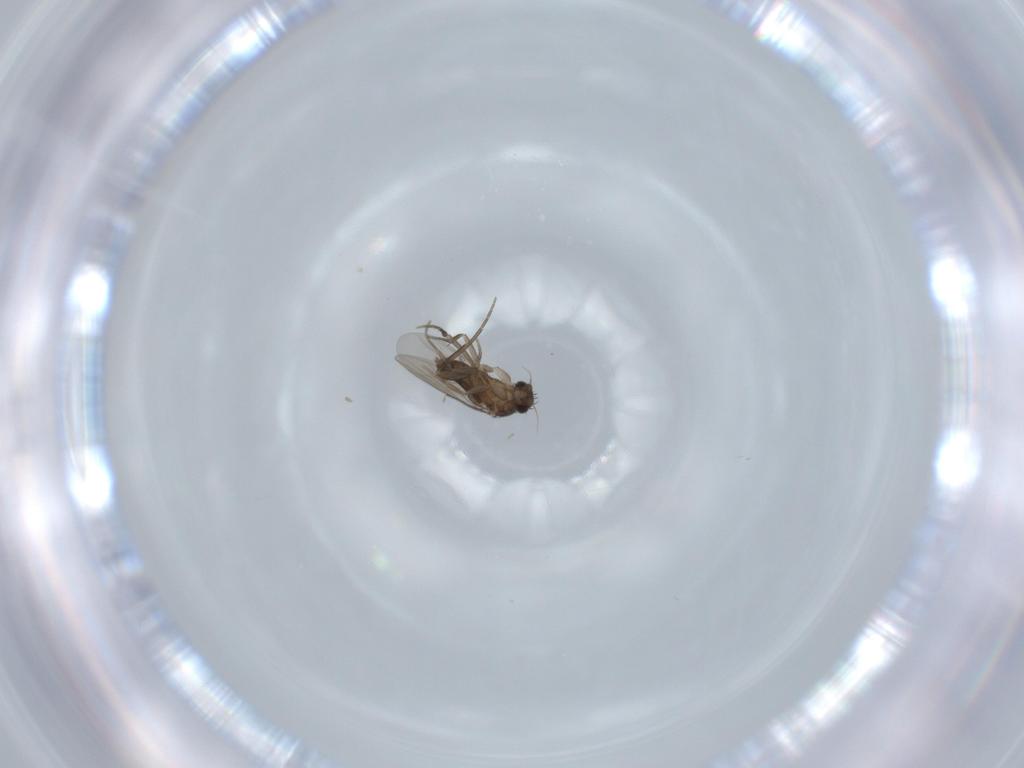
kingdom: Animalia
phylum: Arthropoda
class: Insecta
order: Diptera
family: Phoridae
